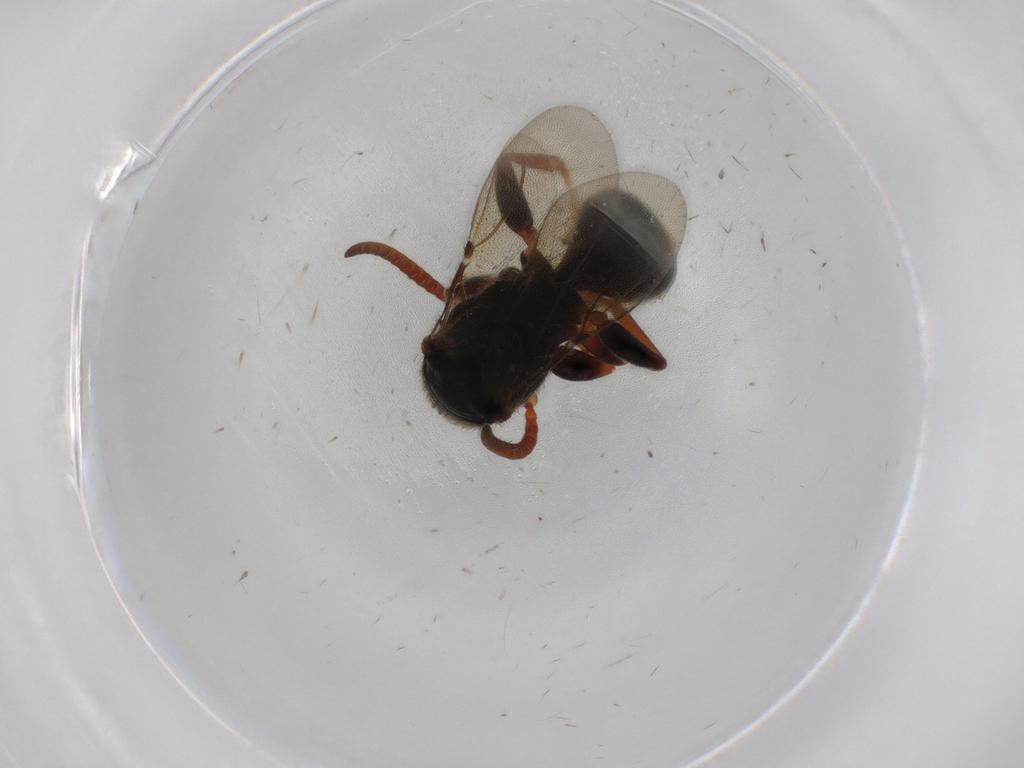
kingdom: Animalia
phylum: Arthropoda
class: Insecta
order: Hymenoptera
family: Bethylidae
